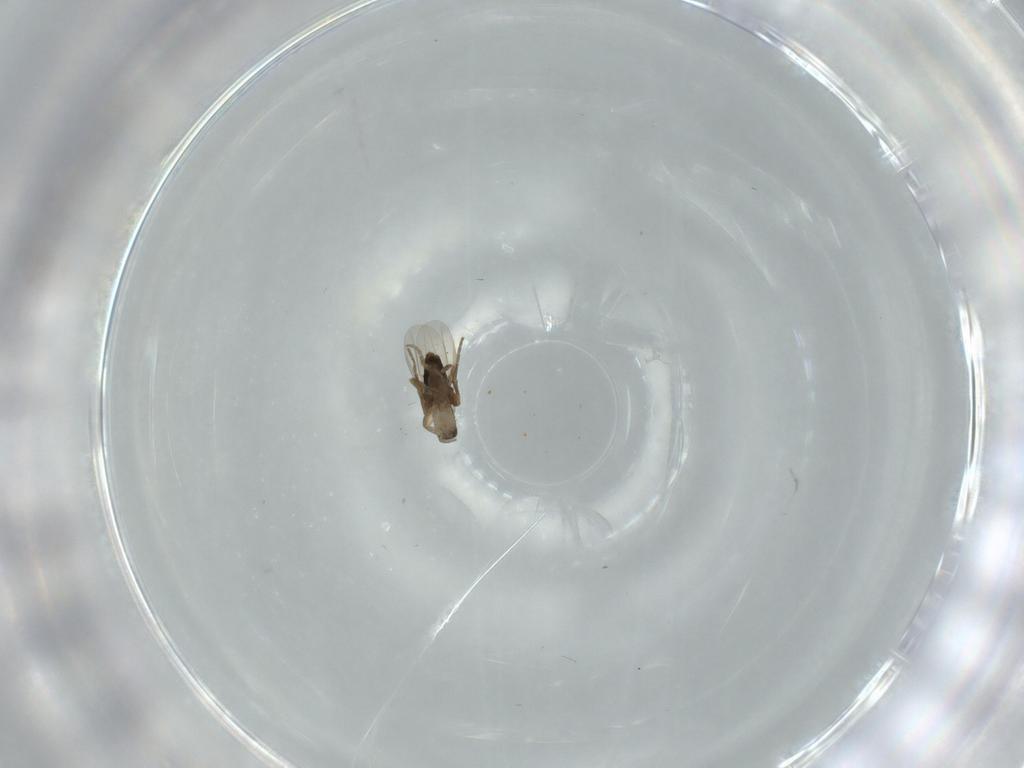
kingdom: Animalia
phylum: Arthropoda
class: Insecta
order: Diptera
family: Phoridae
